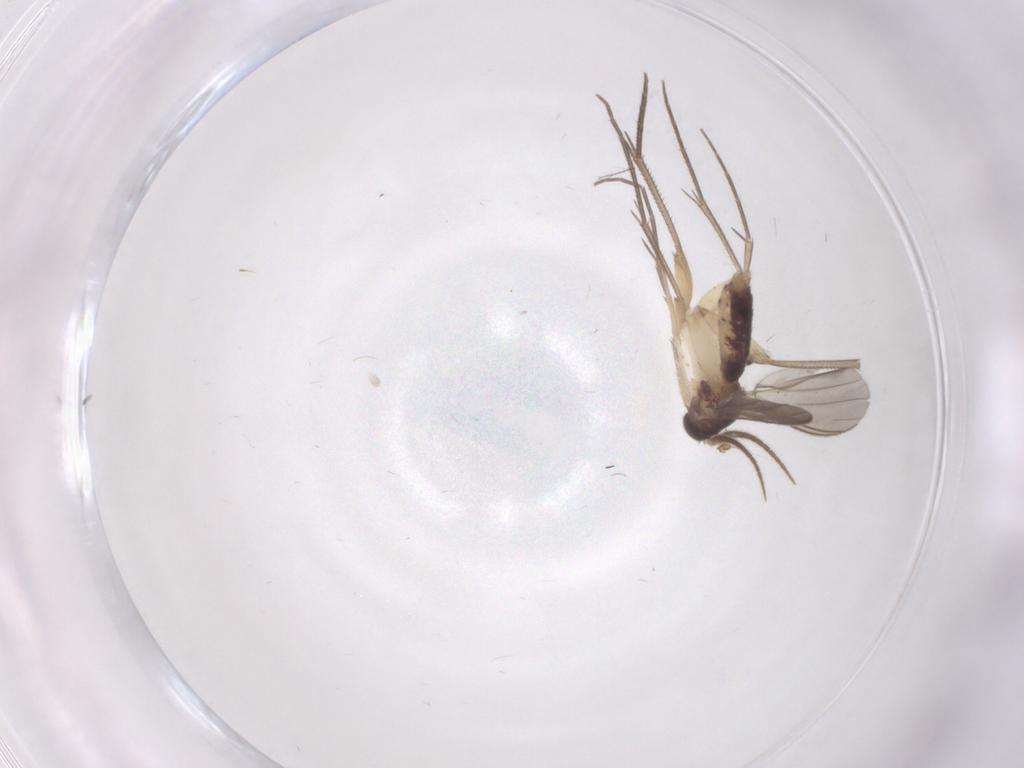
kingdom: Animalia
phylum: Arthropoda
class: Insecta
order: Diptera
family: Mycetophilidae
